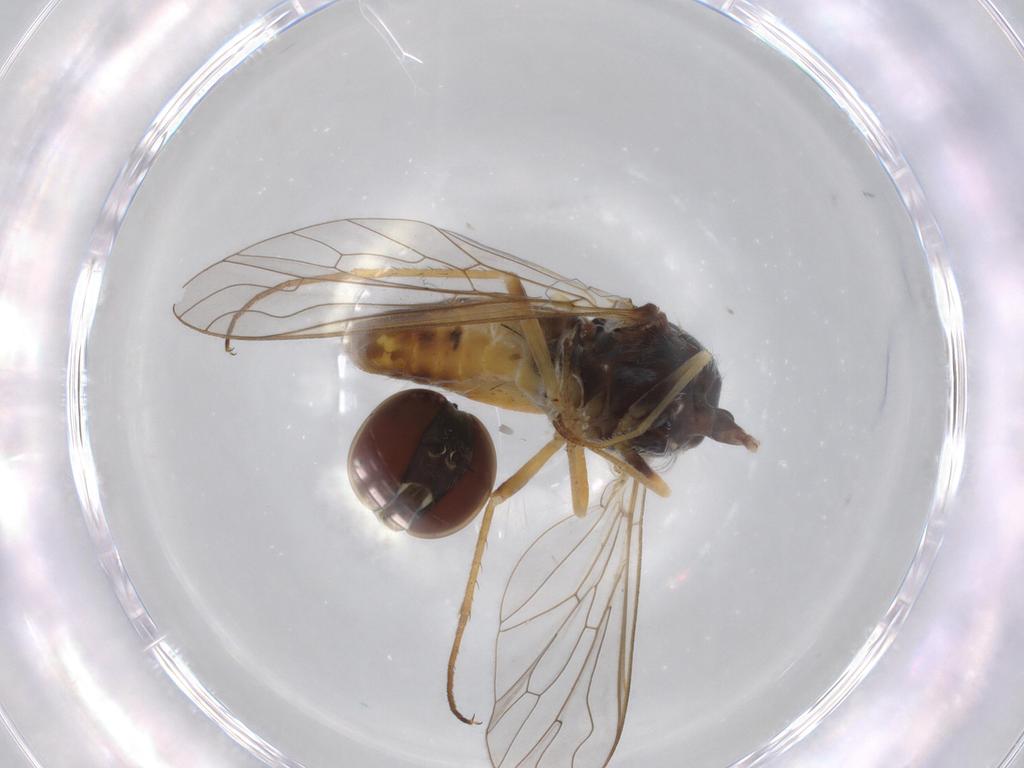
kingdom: Animalia
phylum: Arthropoda
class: Insecta
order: Diptera
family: Bombyliidae
